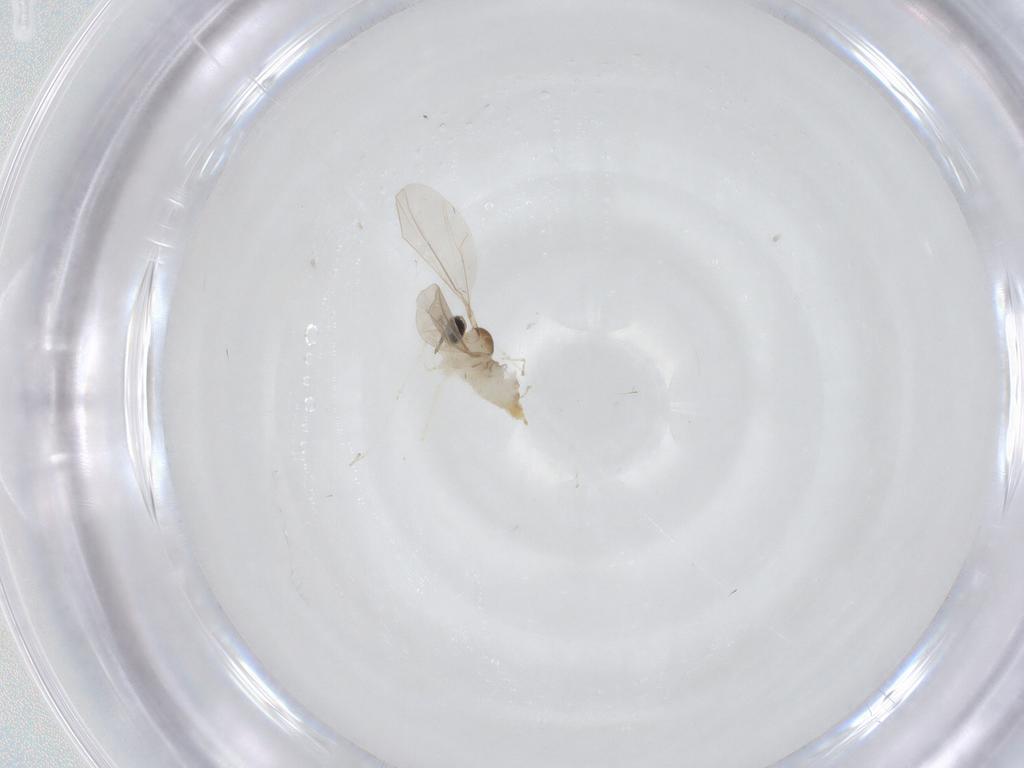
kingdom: Animalia
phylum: Arthropoda
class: Insecta
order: Diptera
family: Cecidomyiidae
